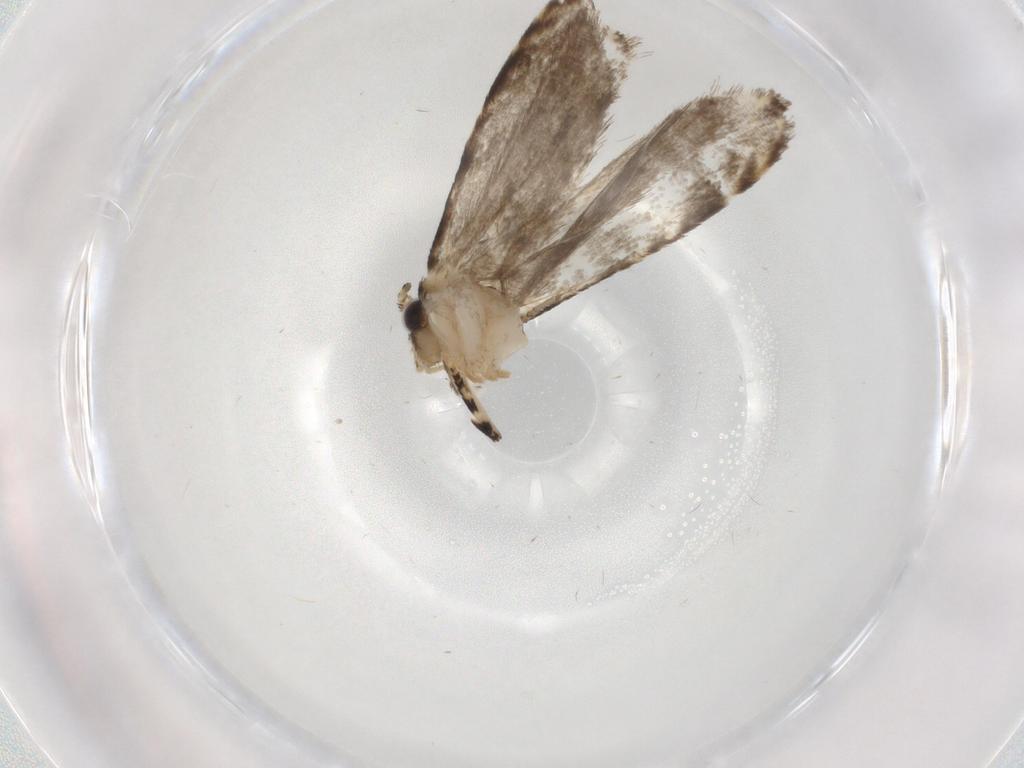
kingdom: Animalia
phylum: Arthropoda
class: Insecta
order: Lepidoptera
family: Tineidae
